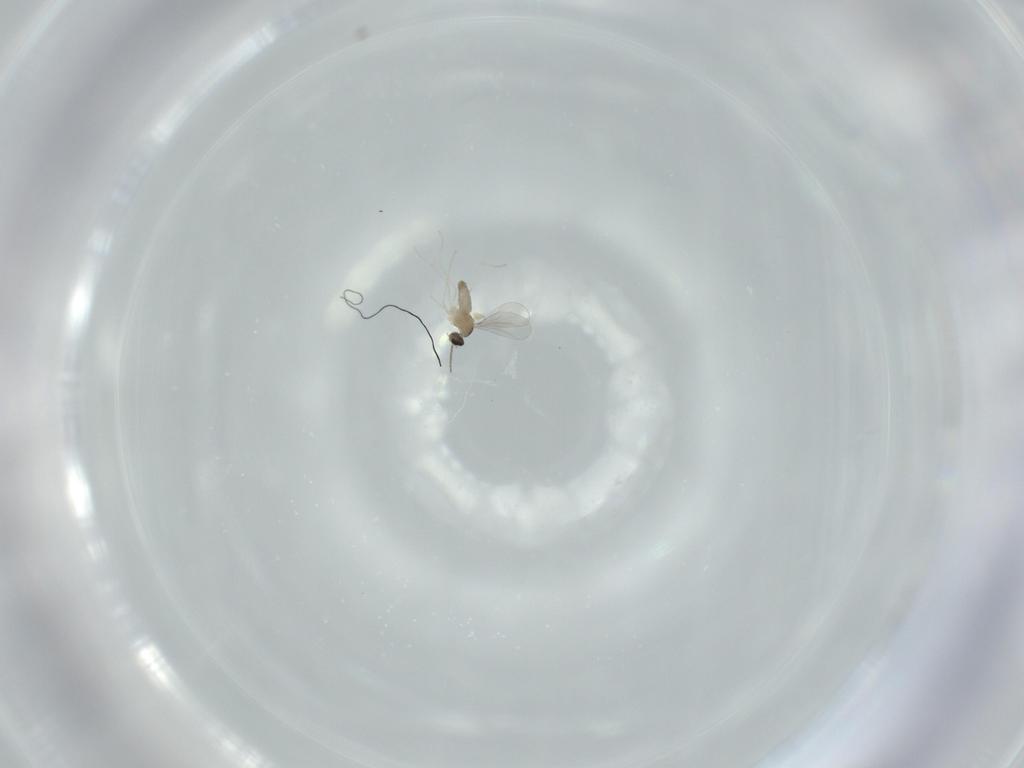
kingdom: Animalia
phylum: Arthropoda
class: Insecta
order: Diptera
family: Cecidomyiidae
